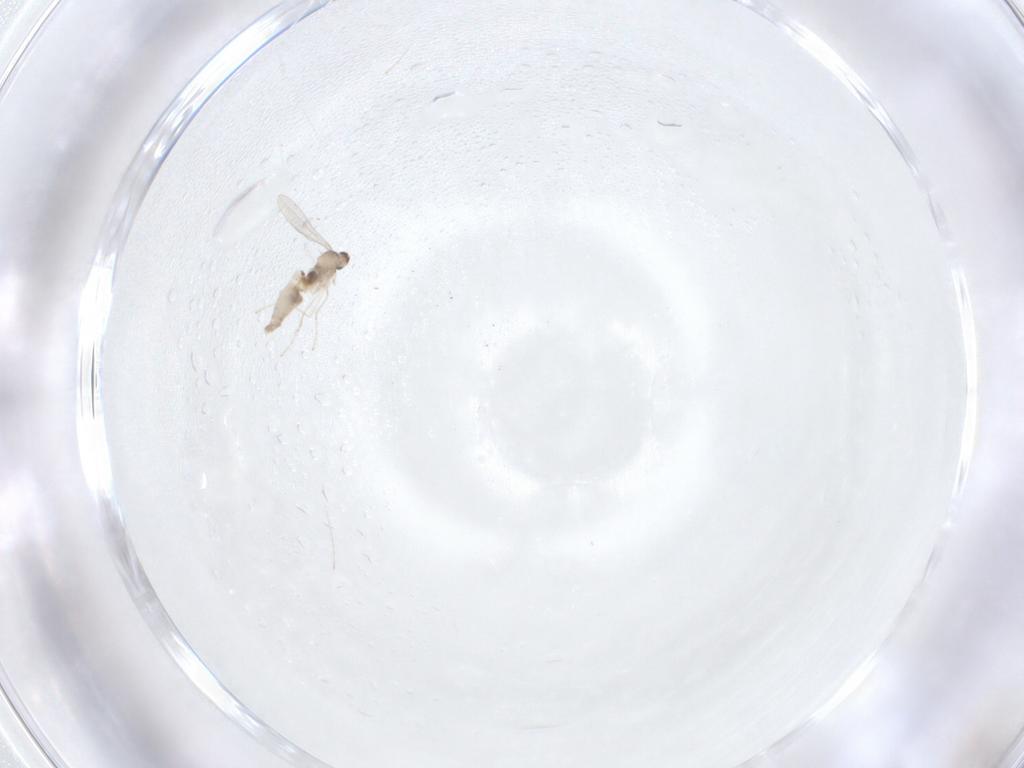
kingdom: Animalia
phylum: Arthropoda
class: Insecta
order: Diptera
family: Cecidomyiidae
